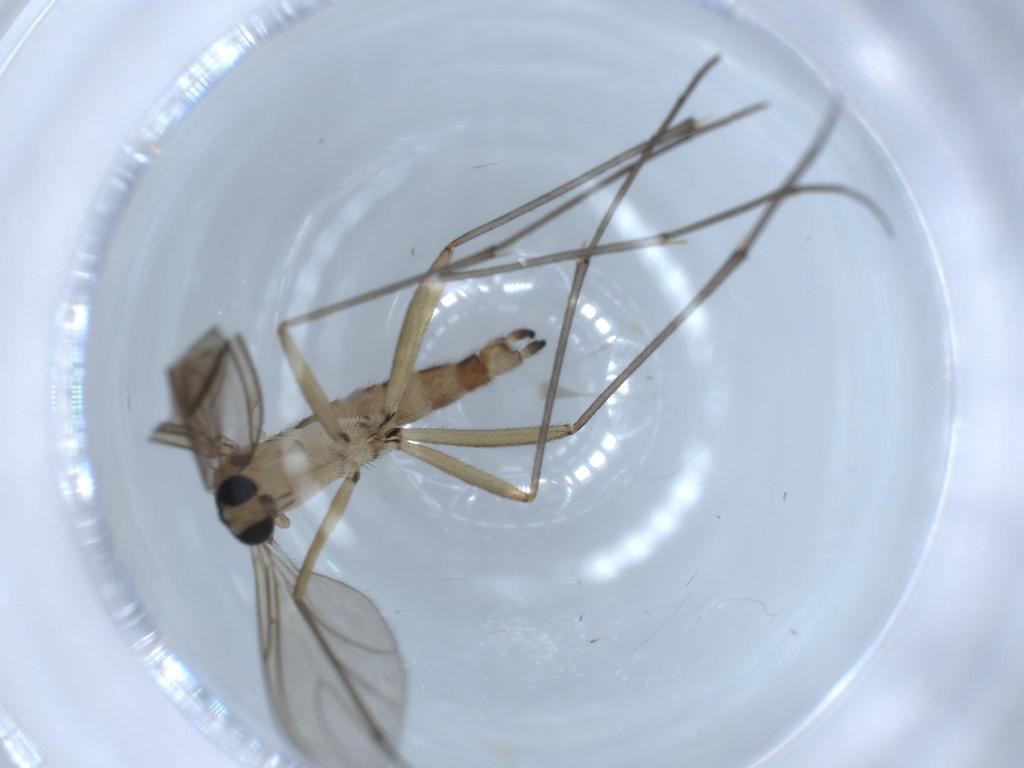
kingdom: Animalia
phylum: Arthropoda
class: Insecta
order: Diptera
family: Sciaridae
